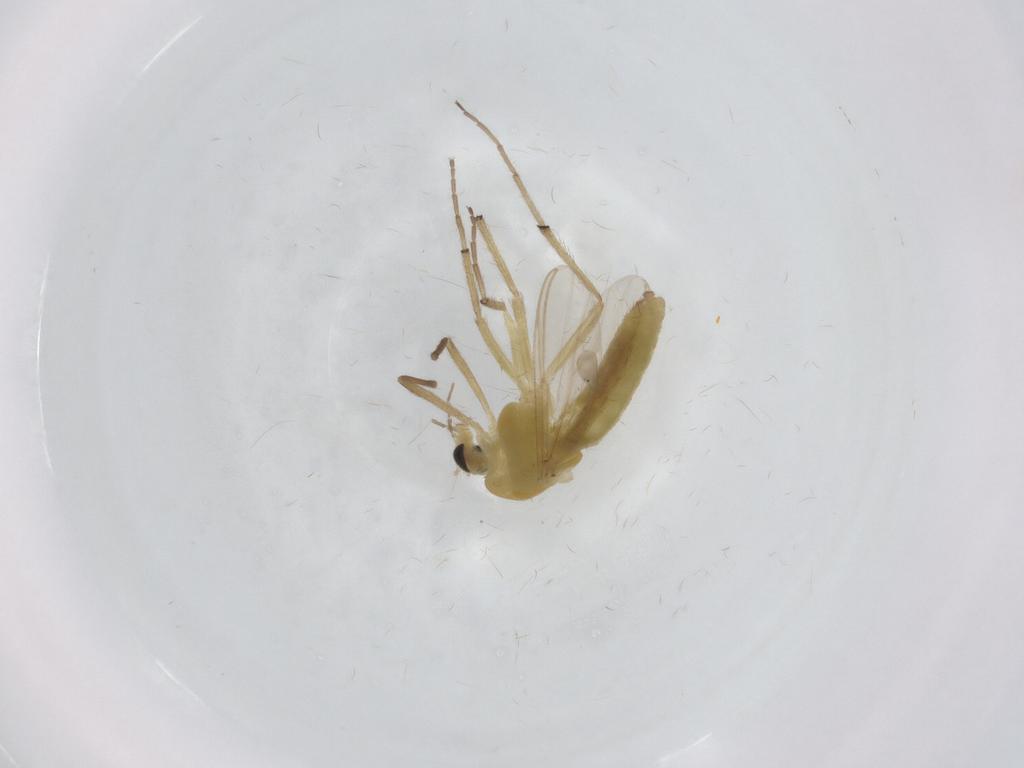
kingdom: Animalia
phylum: Arthropoda
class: Insecta
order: Diptera
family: Chironomidae
